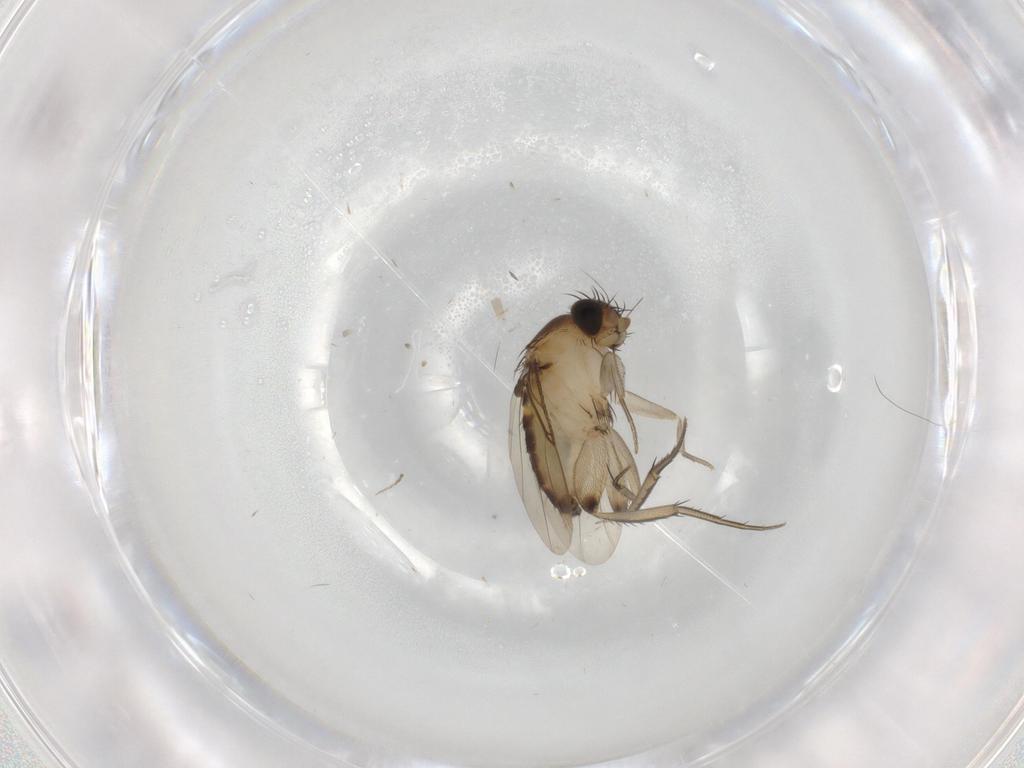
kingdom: Animalia
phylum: Arthropoda
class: Insecta
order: Diptera
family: Phoridae
